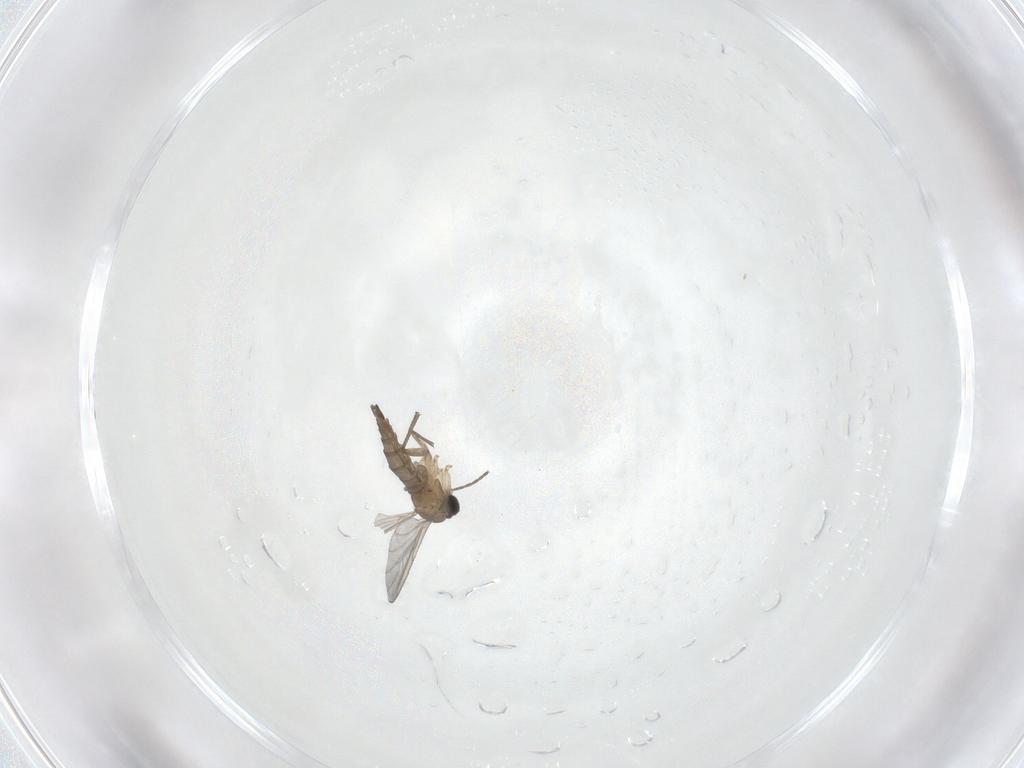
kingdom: Animalia
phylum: Arthropoda
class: Insecta
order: Diptera
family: Sciaridae
